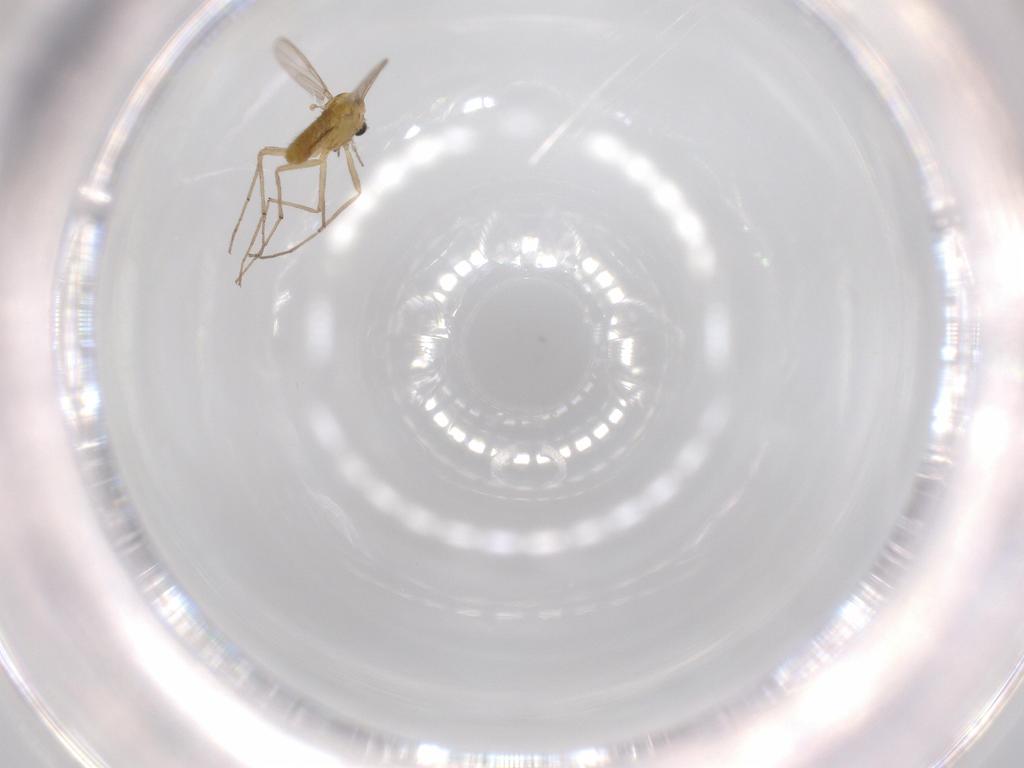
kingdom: Animalia
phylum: Arthropoda
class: Insecta
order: Diptera
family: Chironomidae
